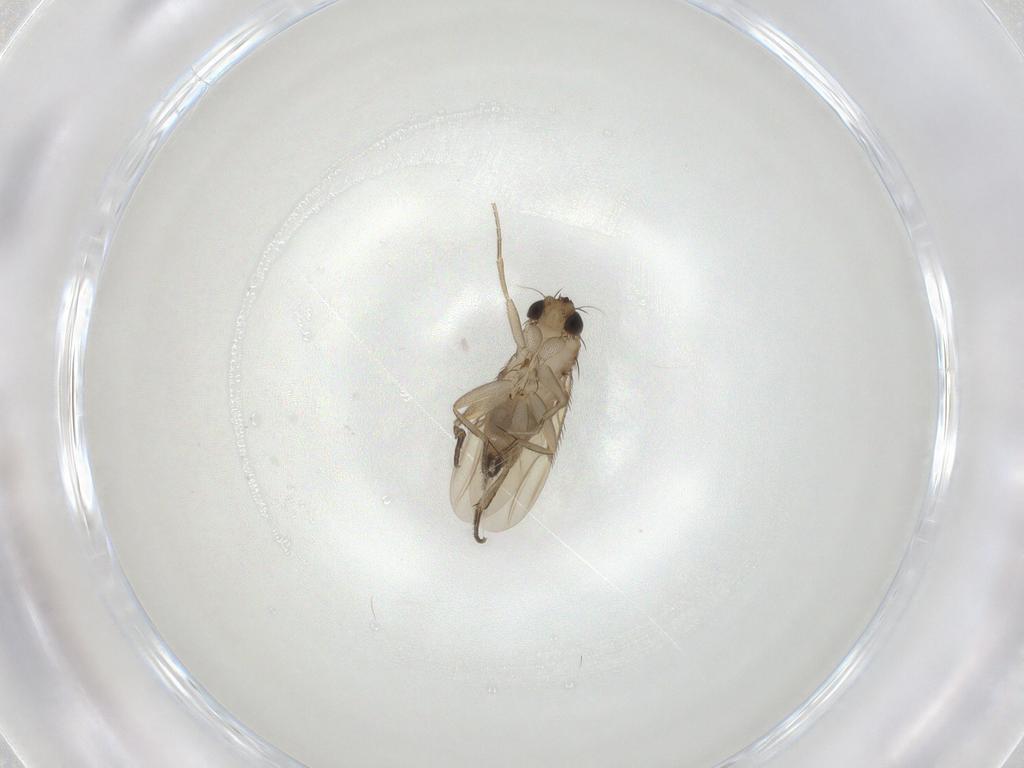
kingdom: Animalia
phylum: Arthropoda
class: Insecta
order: Diptera
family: Phoridae
